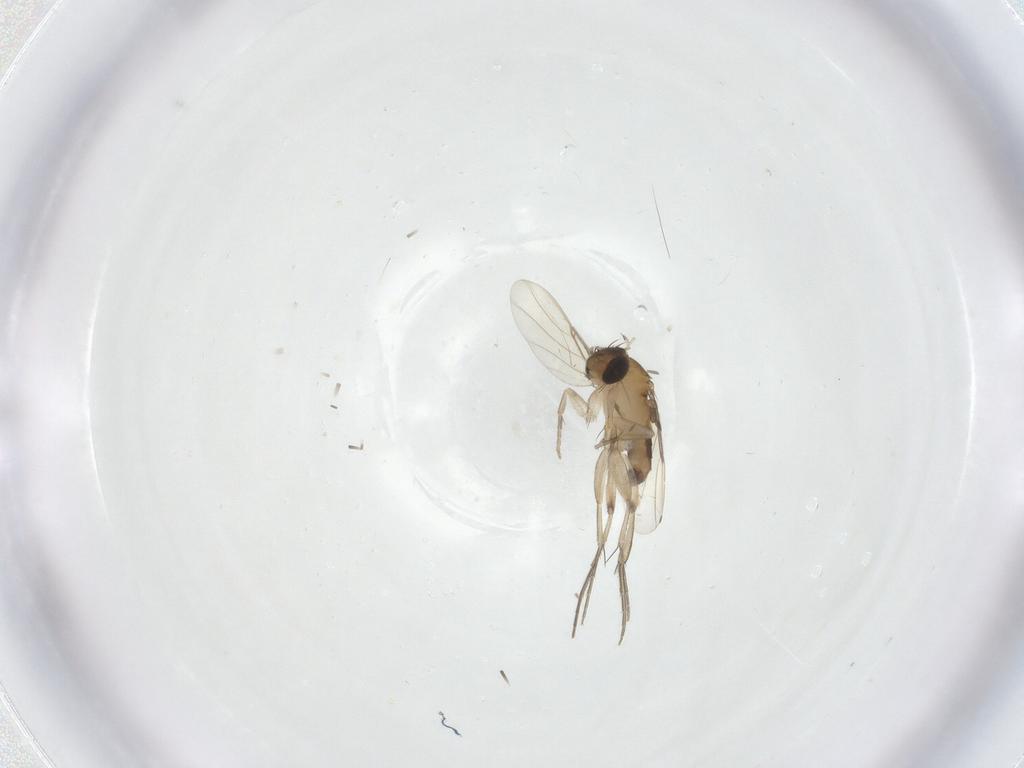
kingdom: Animalia
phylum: Arthropoda
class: Insecta
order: Diptera
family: Phoridae
